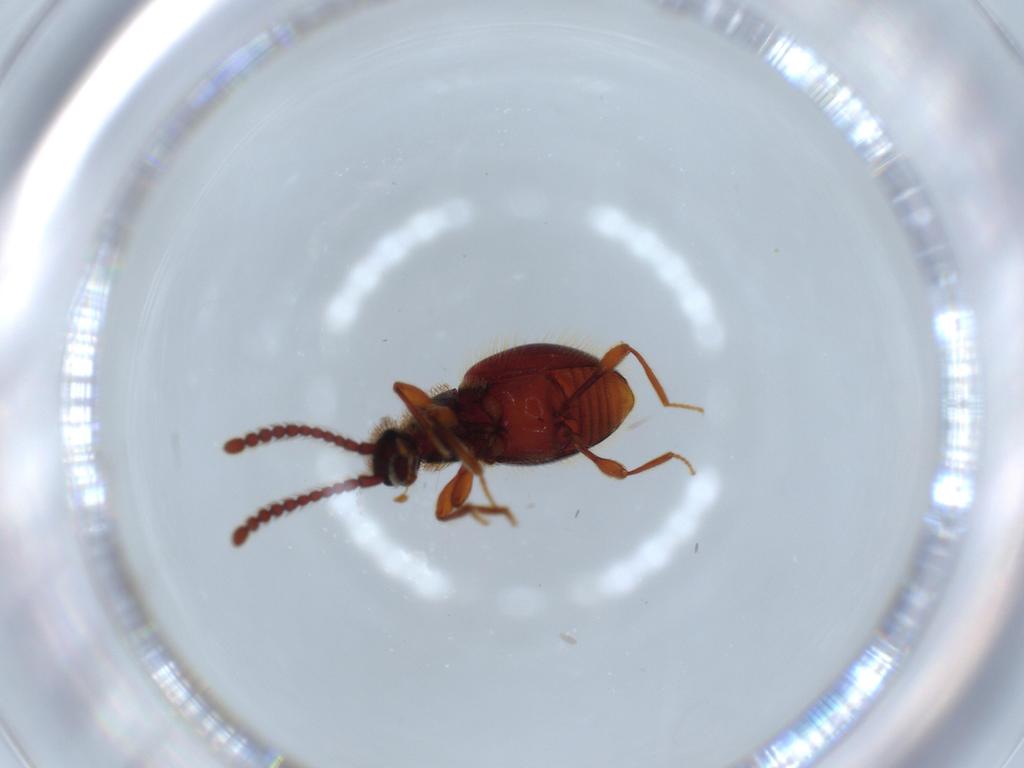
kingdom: Animalia
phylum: Arthropoda
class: Insecta
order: Coleoptera
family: Staphylinidae
